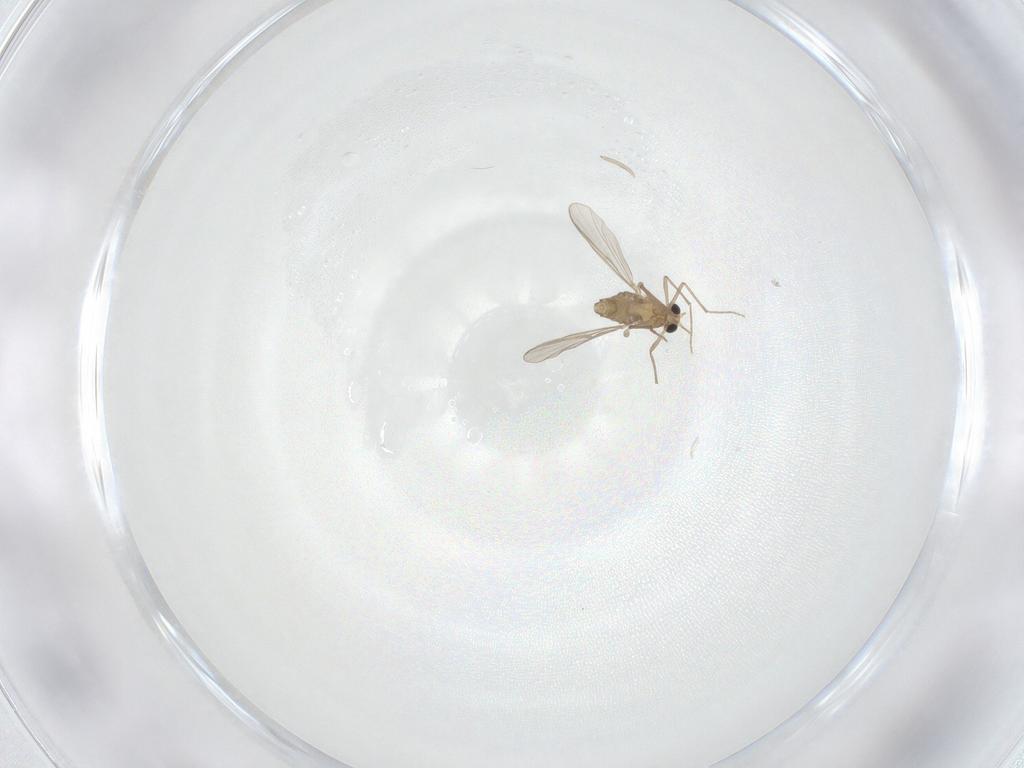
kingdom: Animalia
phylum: Arthropoda
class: Insecta
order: Diptera
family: Chironomidae
